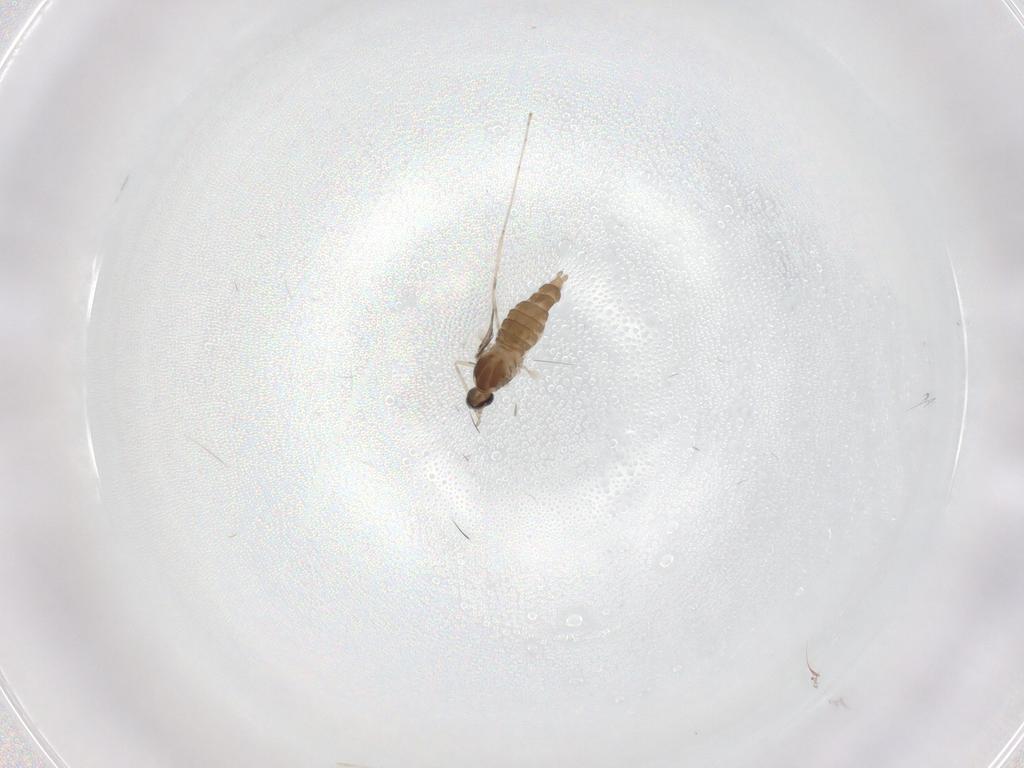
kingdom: Animalia
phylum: Arthropoda
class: Insecta
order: Diptera
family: Cecidomyiidae
